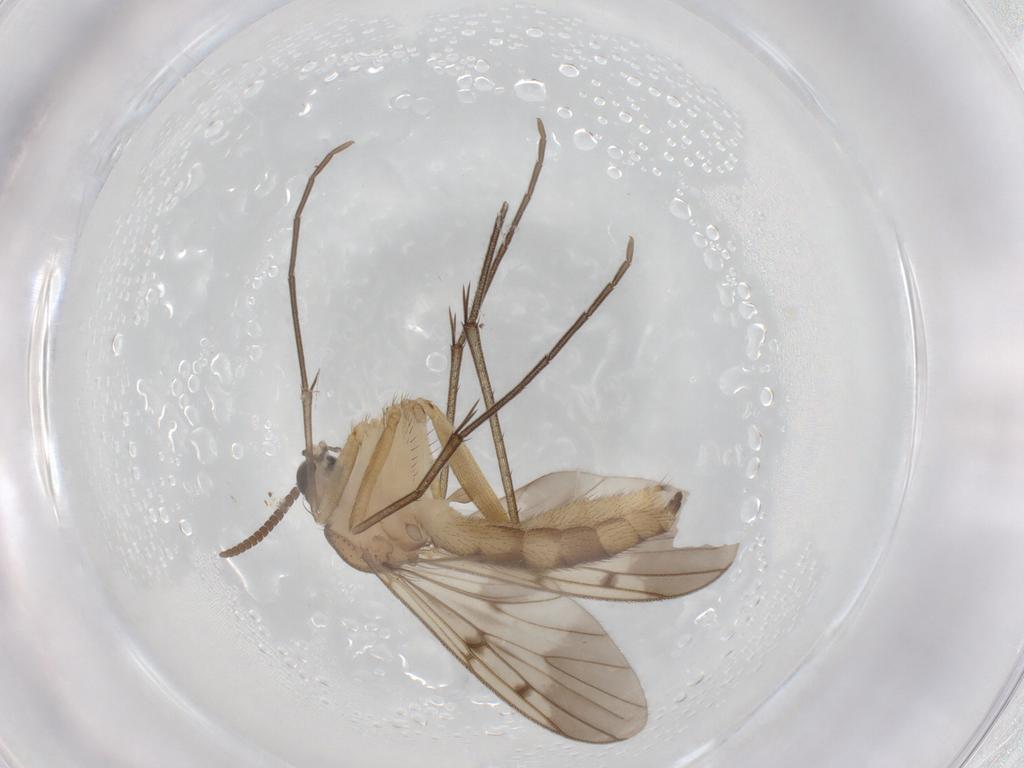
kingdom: Animalia
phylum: Arthropoda
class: Insecta
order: Diptera
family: Mycetophilidae
